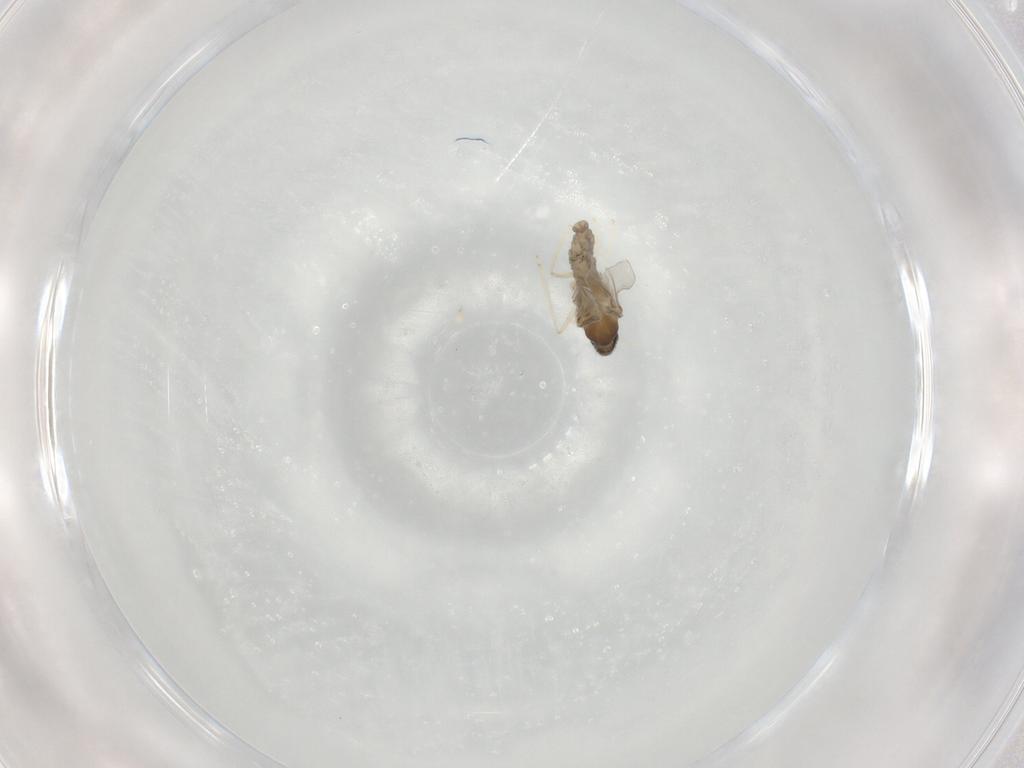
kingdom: Animalia
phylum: Arthropoda
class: Insecta
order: Diptera
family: Cecidomyiidae
